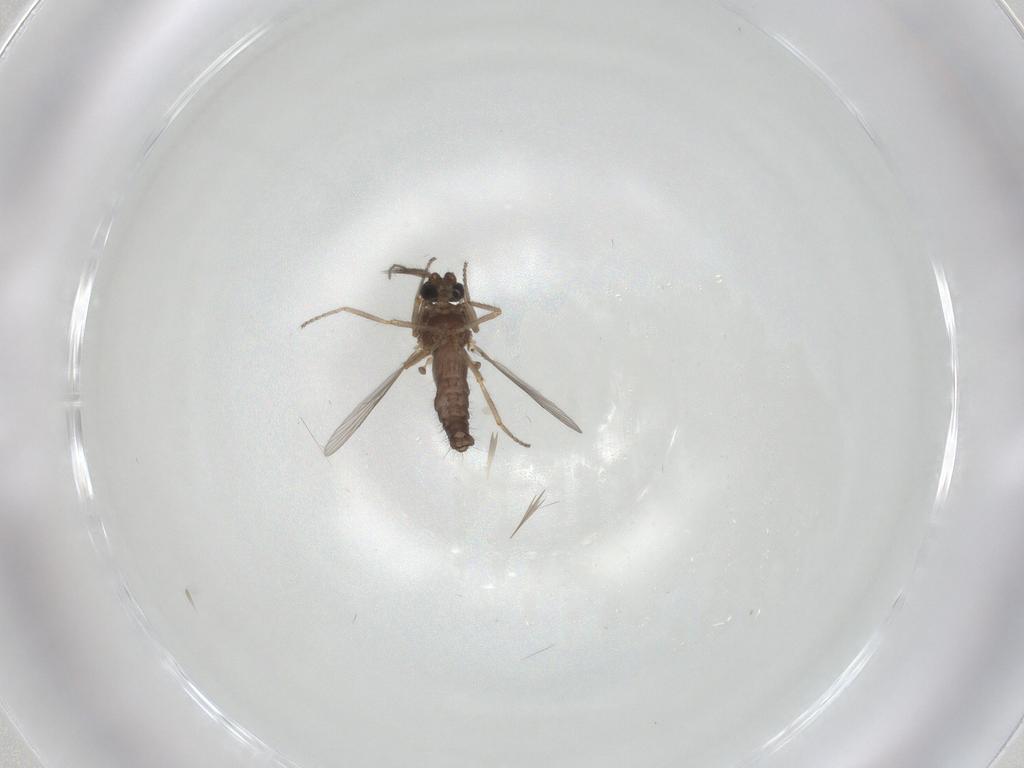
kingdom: Animalia
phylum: Arthropoda
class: Insecta
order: Diptera
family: Ceratopogonidae
